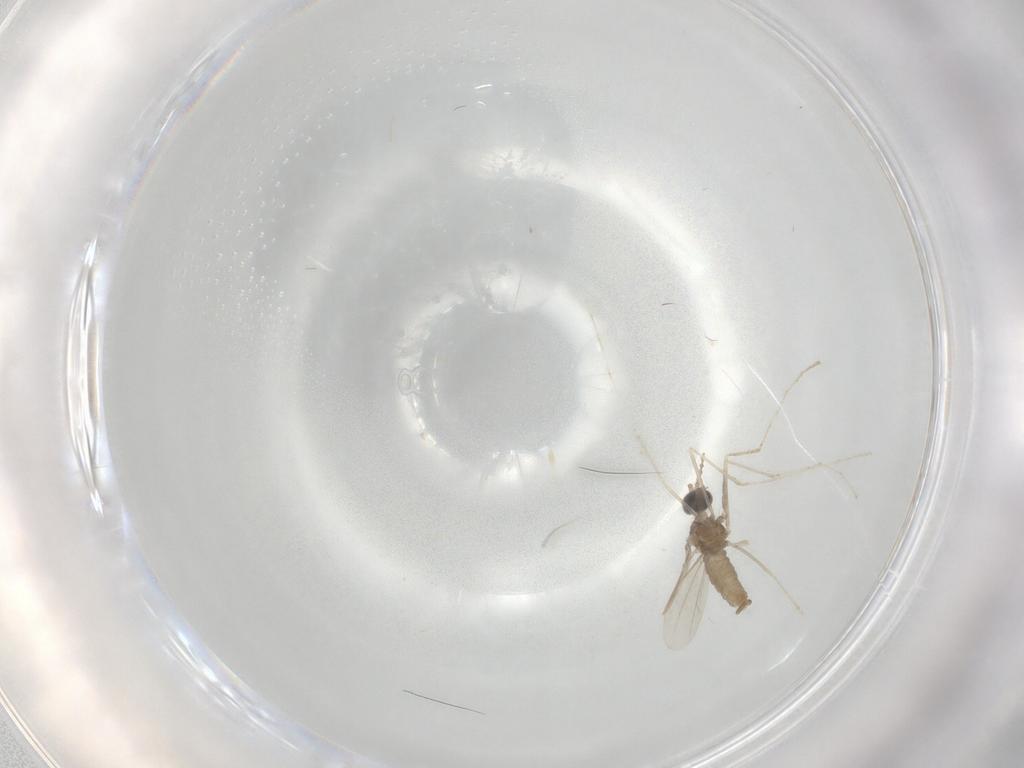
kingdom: Animalia
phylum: Arthropoda
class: Insecta
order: Diptera
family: Cecidomyiidae
